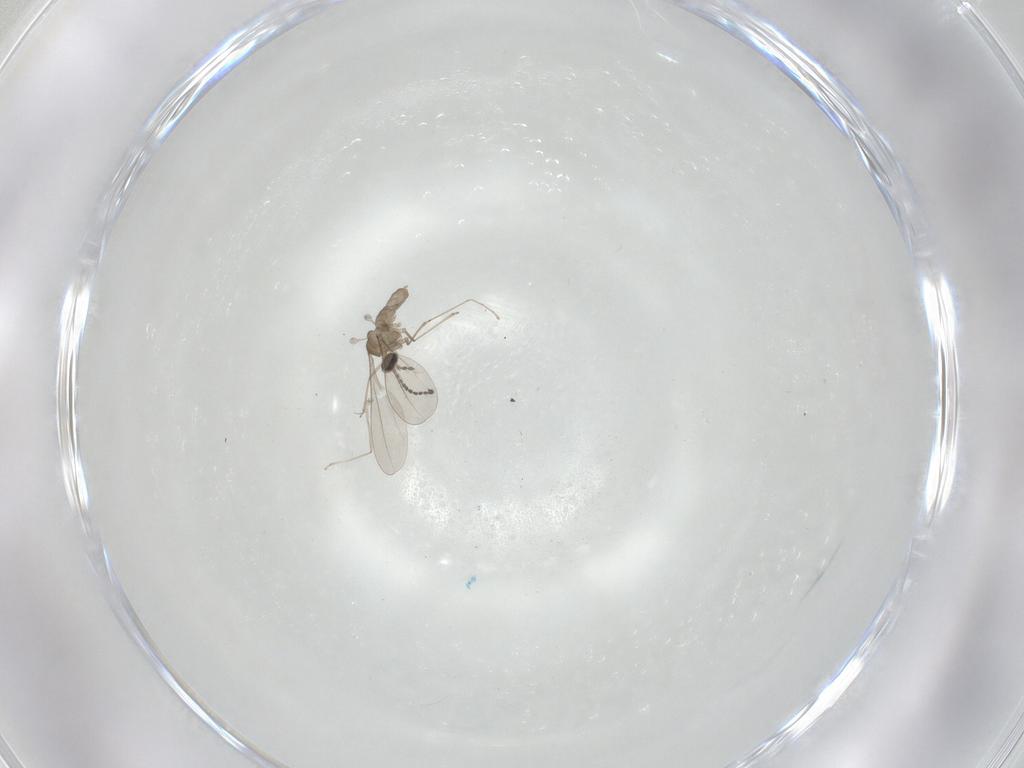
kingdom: Animalia
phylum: Arthropoda
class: Insecta
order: Diptera
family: Cecidomyiidae
